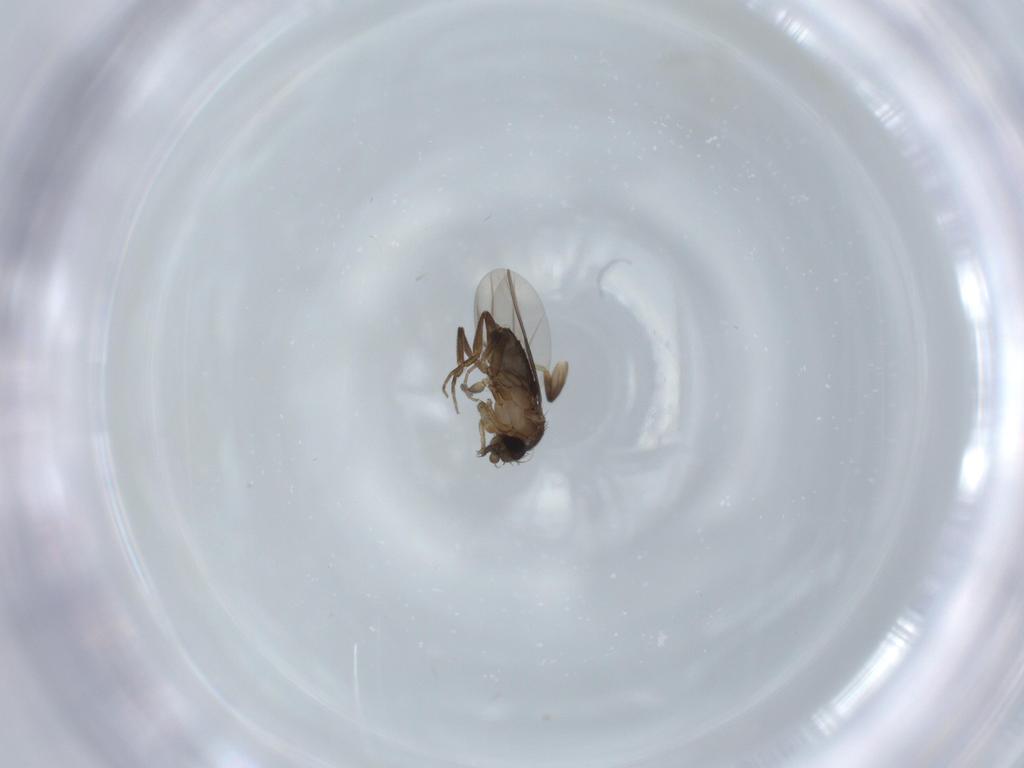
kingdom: Animalia
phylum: Arthropoda
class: Insecta
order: Diptera
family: Phoridae
